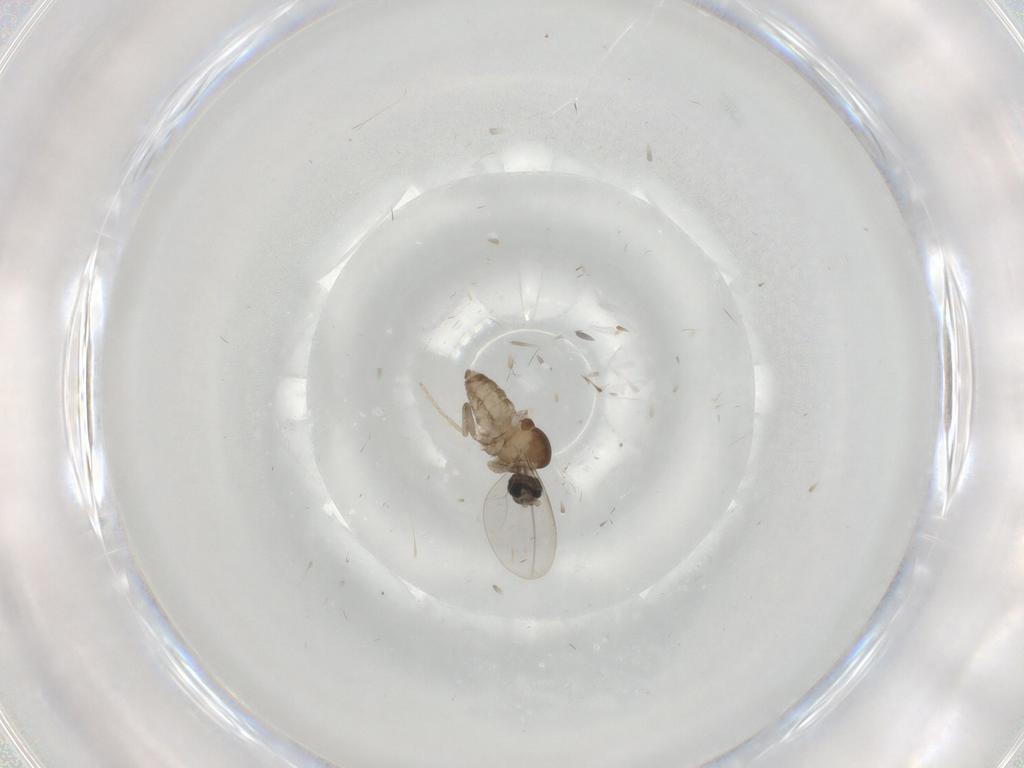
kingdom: Animalia
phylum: Arthropoda
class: Insecta
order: Diptera
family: Cecidomyiidae
